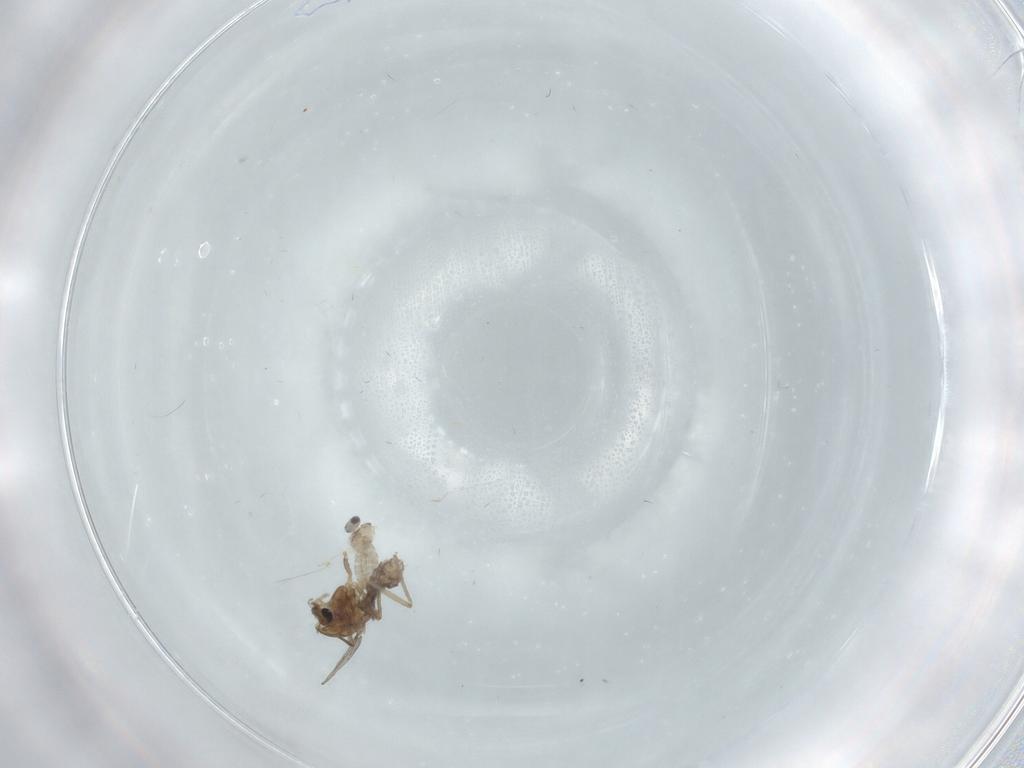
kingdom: Animalia
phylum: Arthropoda
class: Insecta
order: Diptera
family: Cecidomyiidae
